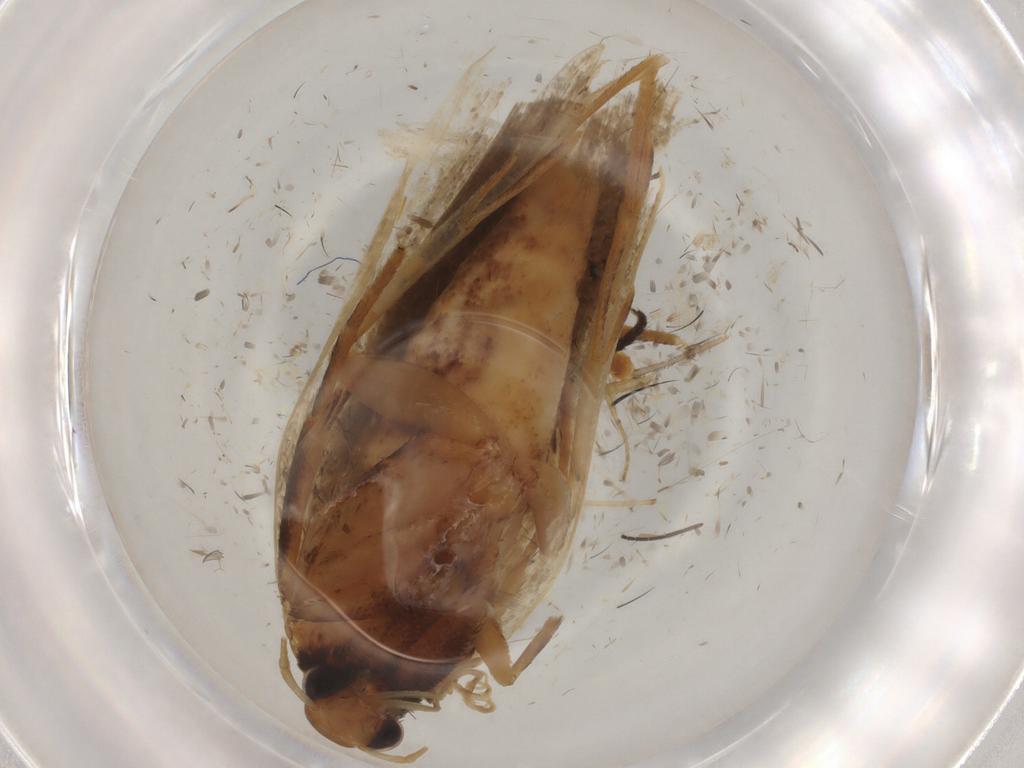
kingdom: Animalia
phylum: Arthropoda
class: Insecta
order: Lepidoptera
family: Gelechiidae
